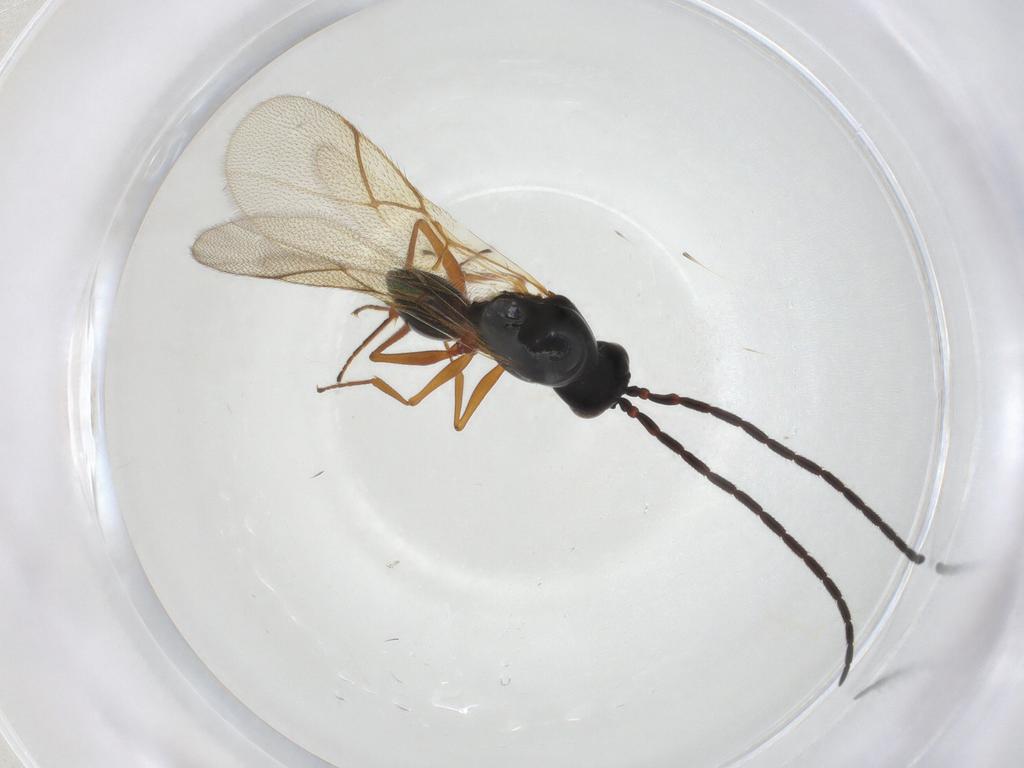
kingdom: Animalia
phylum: Arthropoda
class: Insecta
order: Hymenoptera
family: Figitidae
